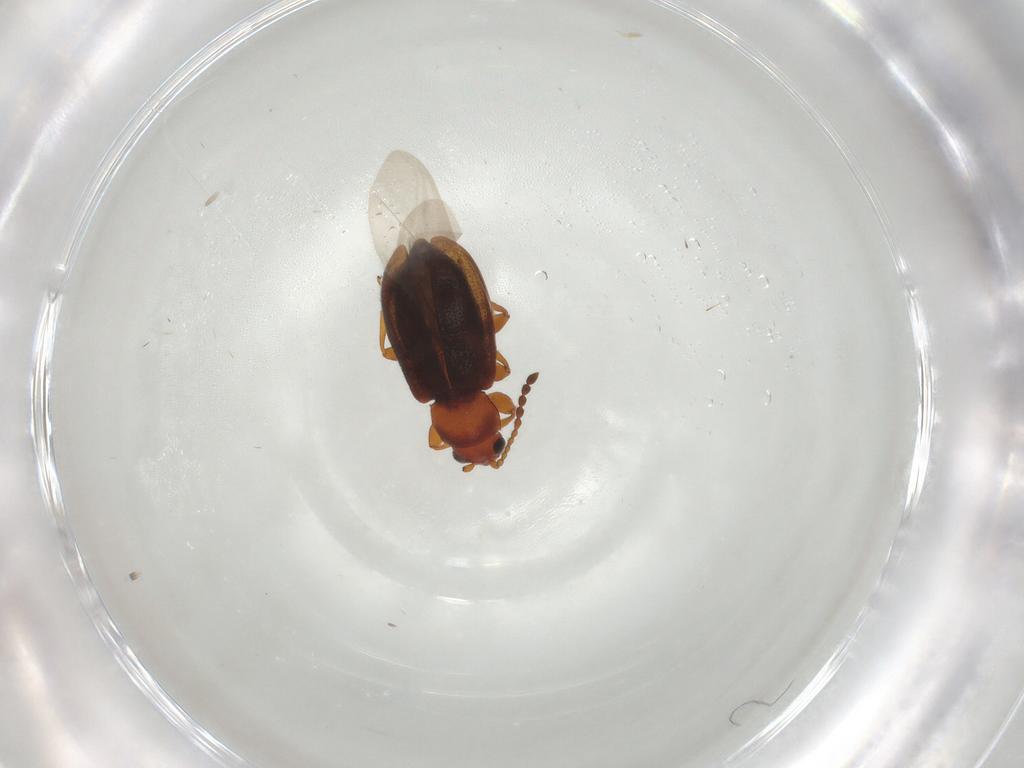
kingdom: Animalia
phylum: Arthropoda
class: Insecta
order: Coleoptera
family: Chrysomelidae
